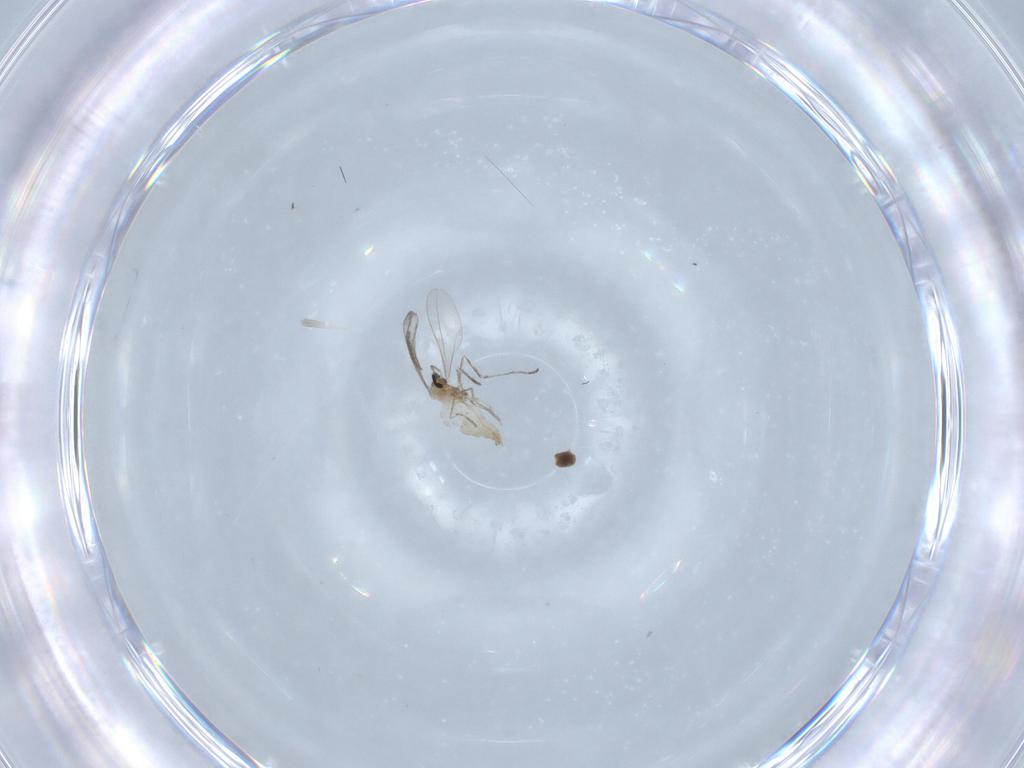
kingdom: Animalia
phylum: Arthropoda
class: Insecta
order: Diptera
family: Cecidomyiidae
